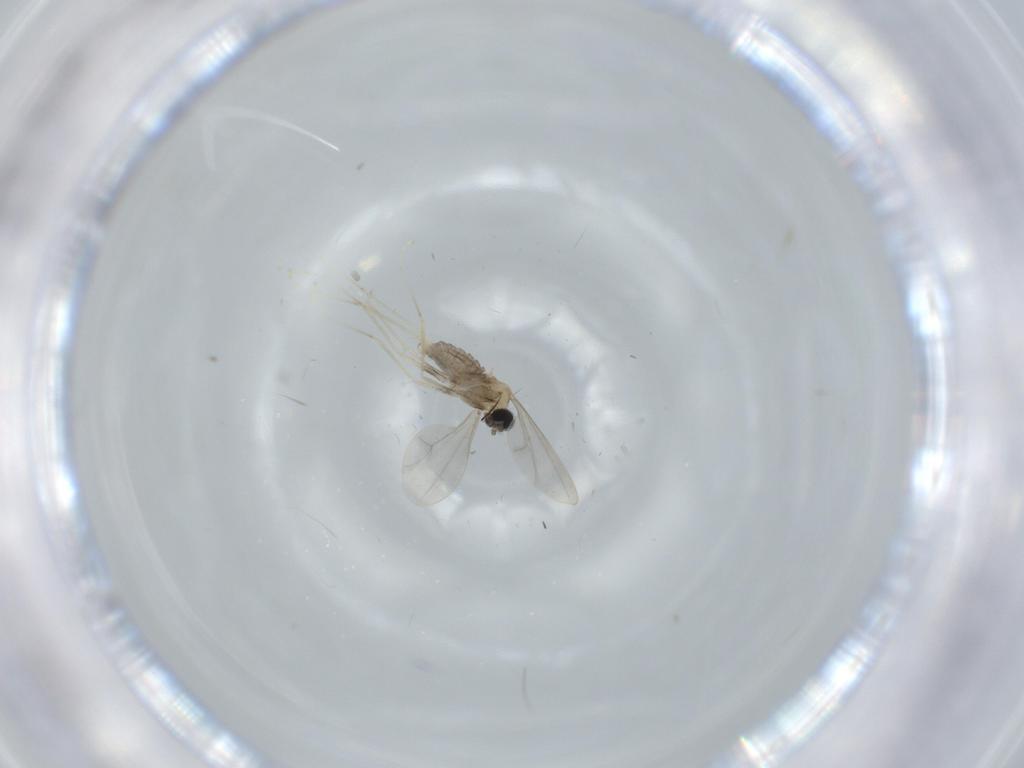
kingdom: Animalia
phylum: Arthropoda
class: Insecta
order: Diptera
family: Cecidomyiidae
